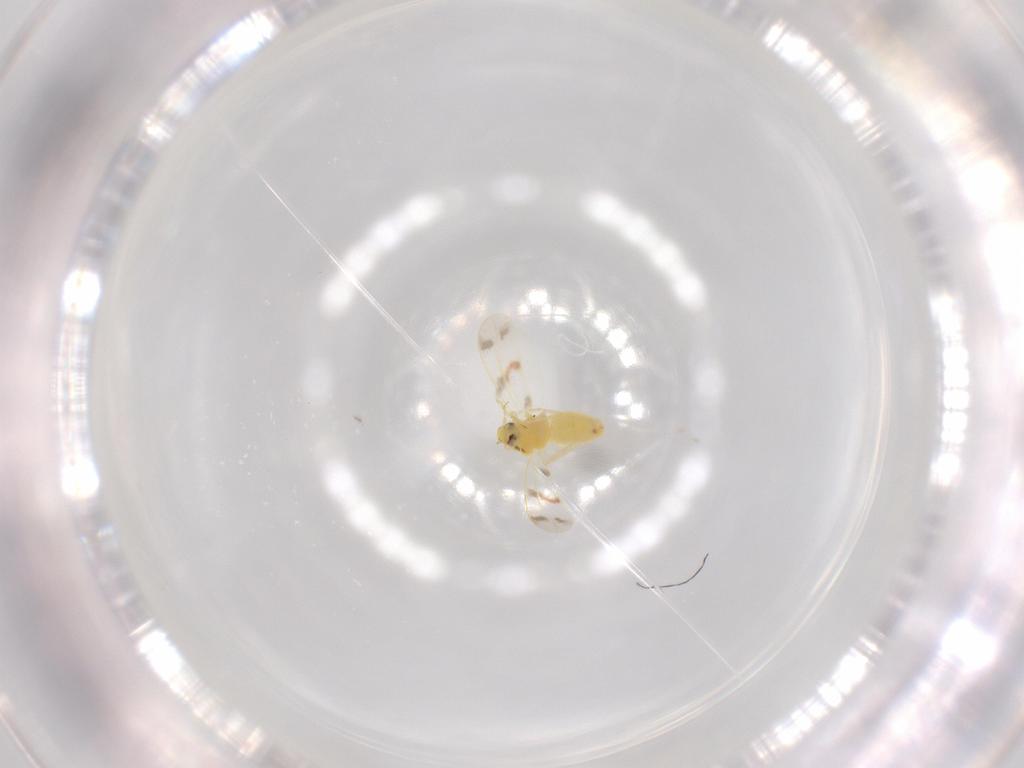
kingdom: Animalia
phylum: Arthropoda
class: Insecta
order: Hemiptera
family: Aleyrodidae
